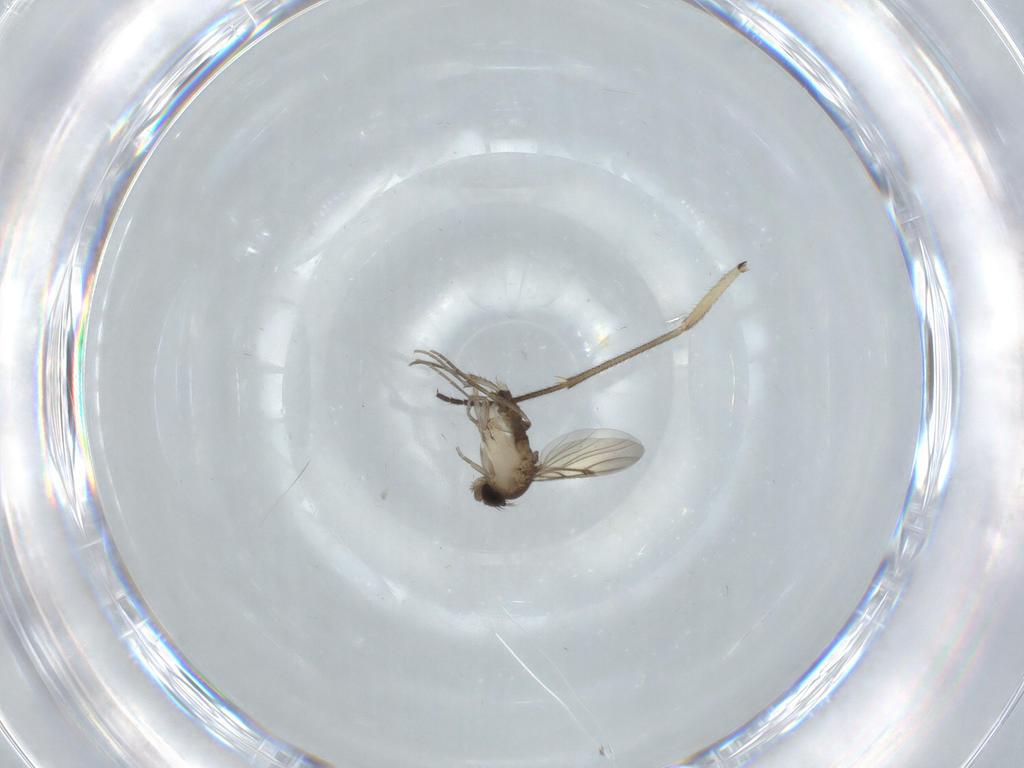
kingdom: Animalia
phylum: Arthropoda
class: Insecta
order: Diptera
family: Sciaridae
